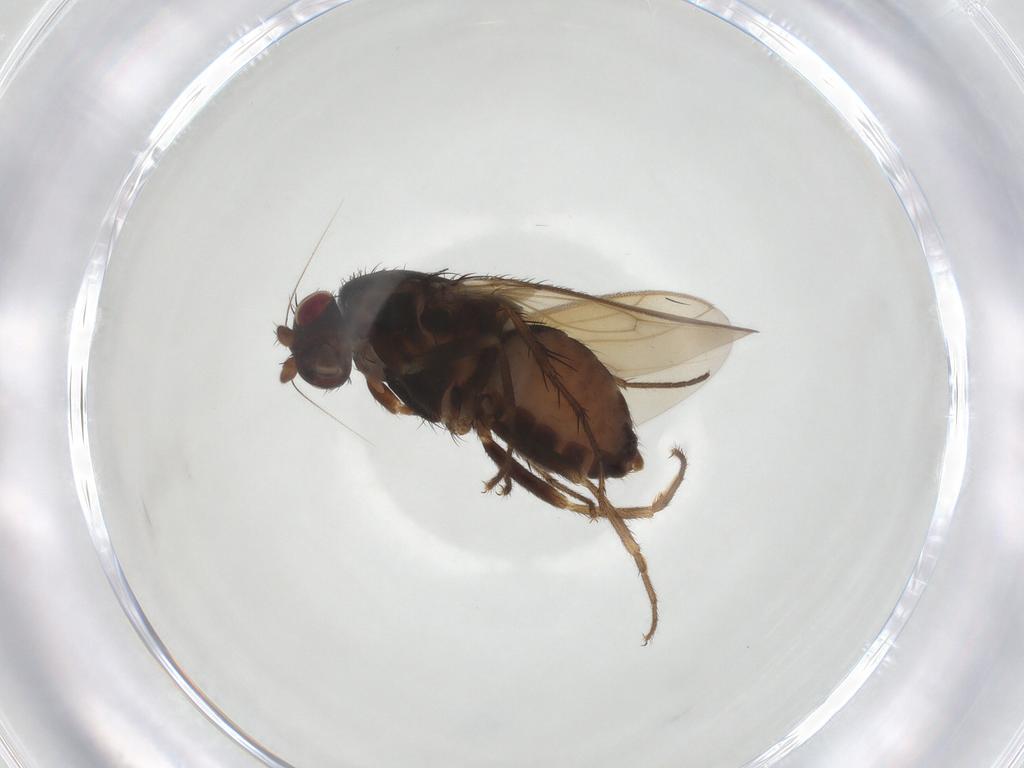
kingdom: Animalia
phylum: Arthropoda
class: Insecta
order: Diptera
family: Sphaeroceridae
